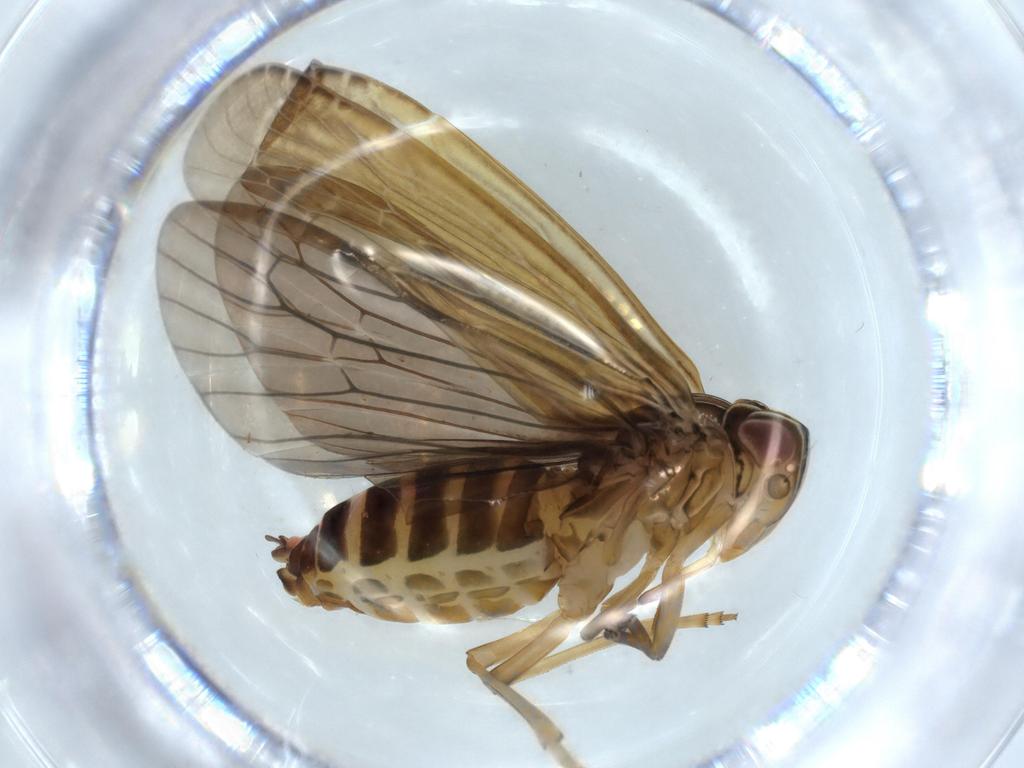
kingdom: Animalia
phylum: Arthropoda
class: Insecta
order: Hemiptera
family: Achilidae
